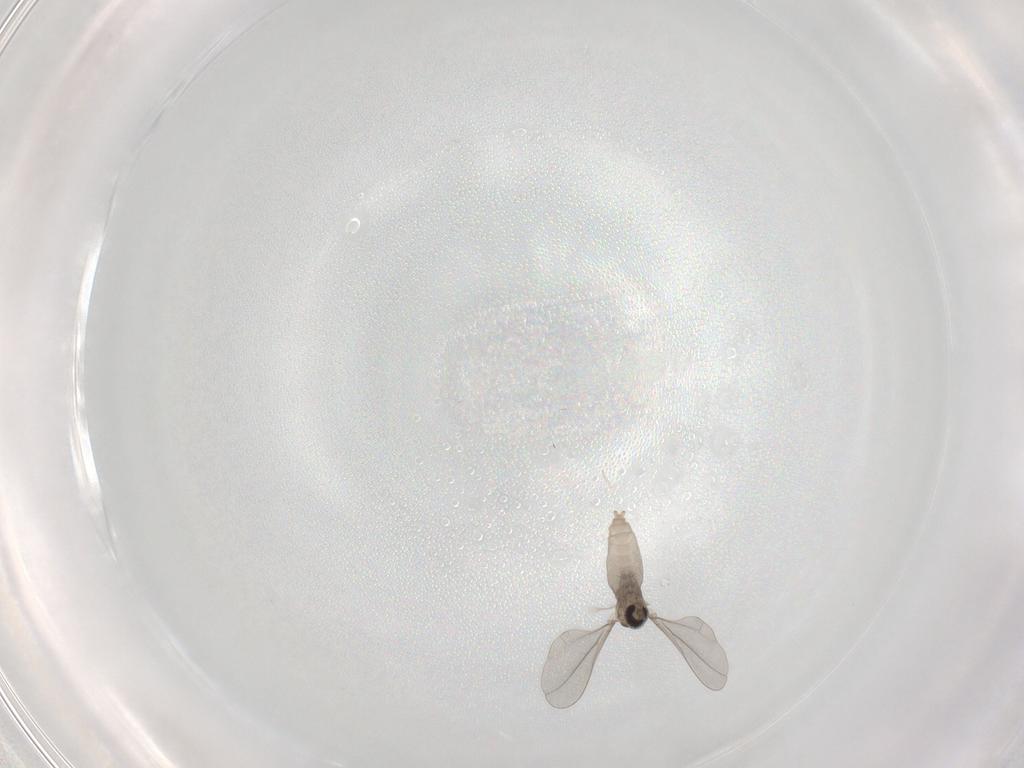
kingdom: Animalia
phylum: Arthropoda
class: Insecta
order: Diptera
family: Cecidomyiidae
